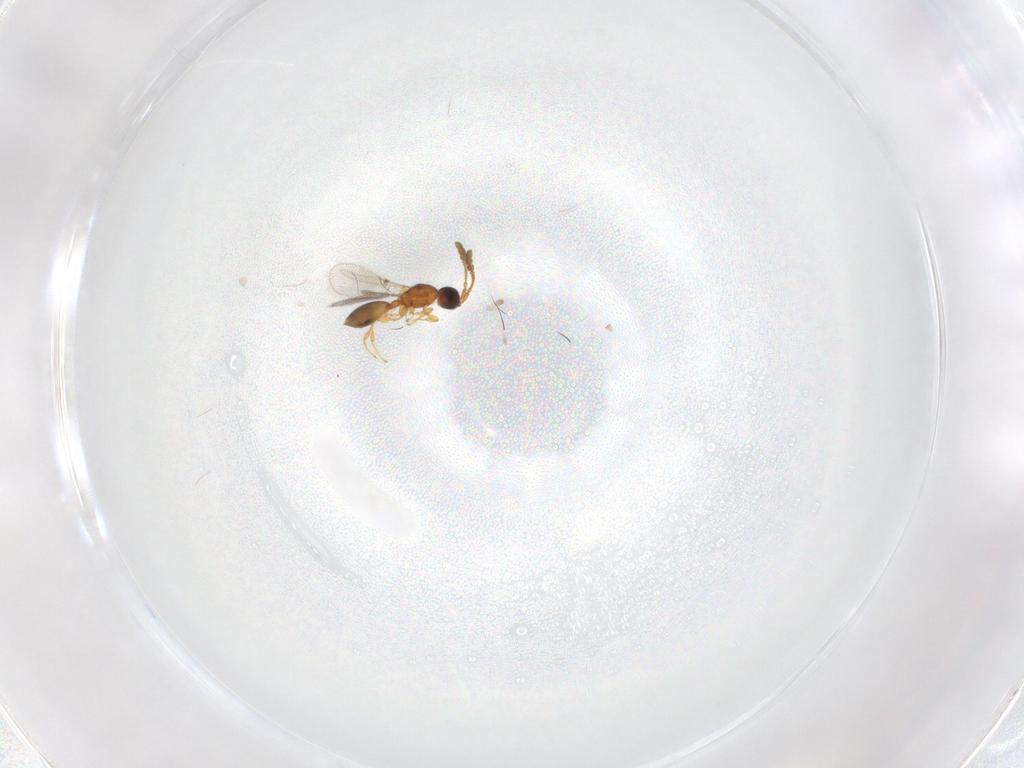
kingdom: Animalia
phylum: Arthropoda
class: Insecta
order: Hymenoptera
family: Diapriidae
